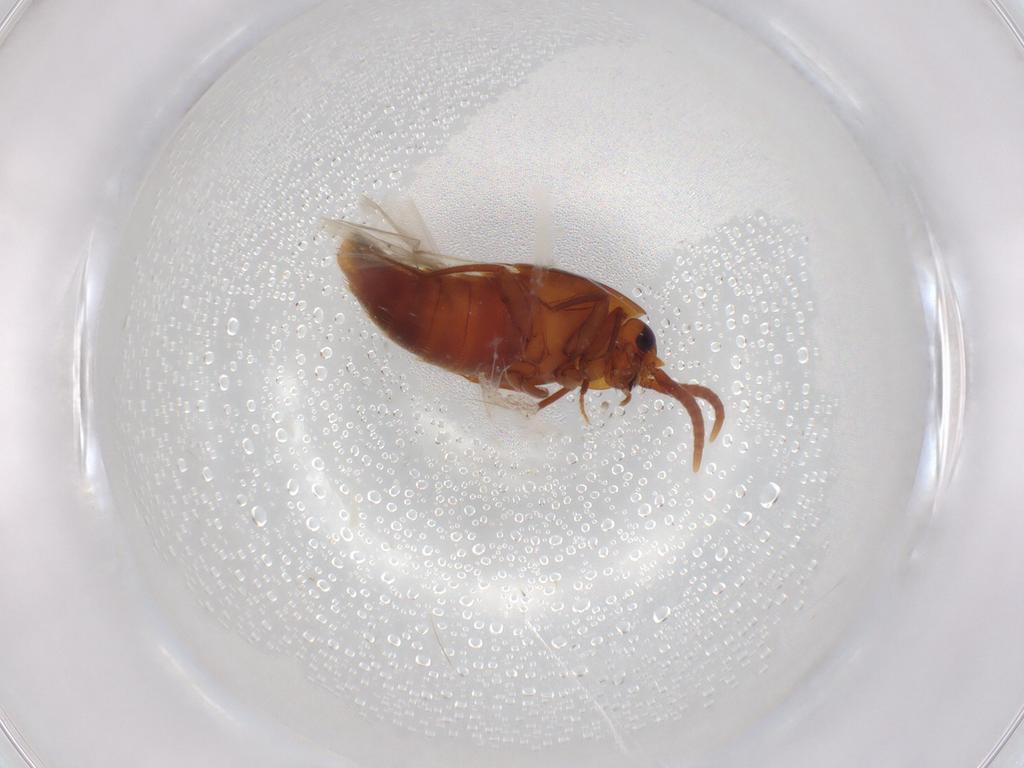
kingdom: Animalia
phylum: Arthropoda
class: Insecta
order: Coleoptera
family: Staphylinidae
